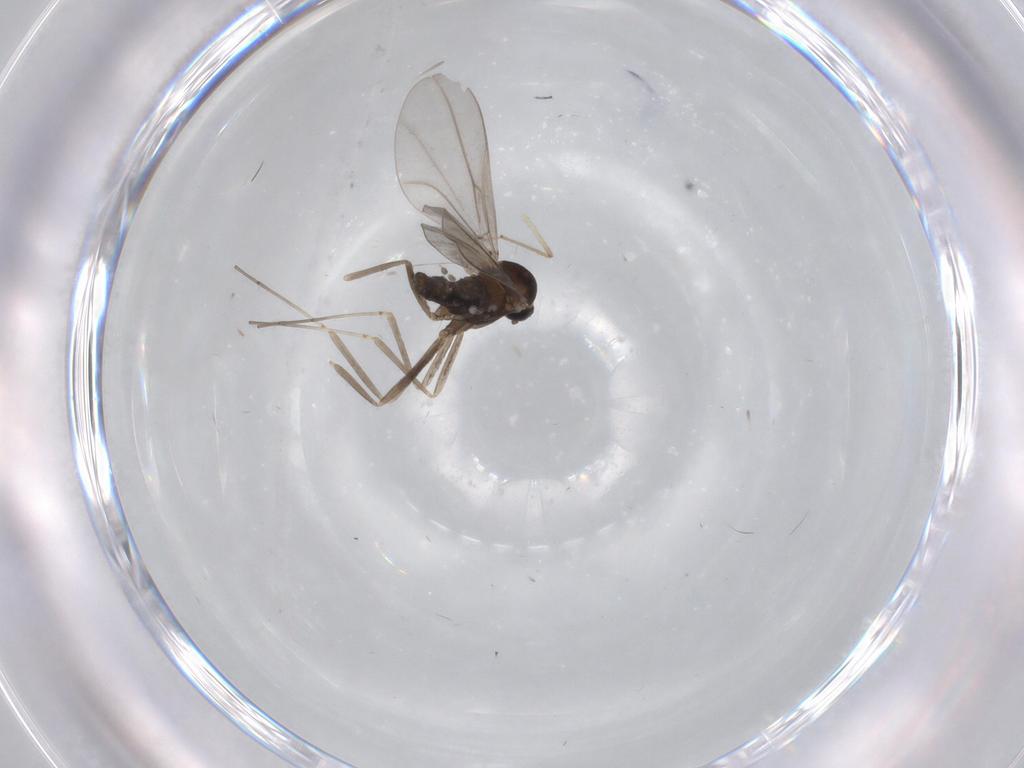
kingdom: Animalia
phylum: Arthropoda
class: Insecta
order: Diptera
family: Cecidomyiidae
